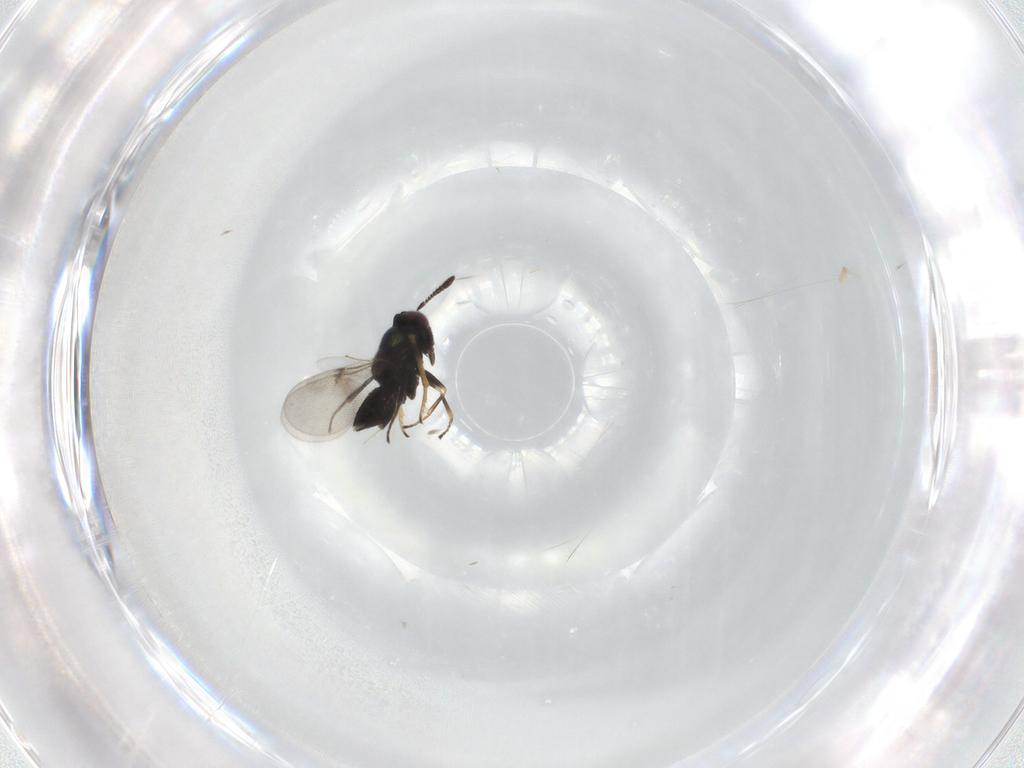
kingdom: Animalia
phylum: Arthropoda
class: Insecta
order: Hymenoptera
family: Encyrtidae
